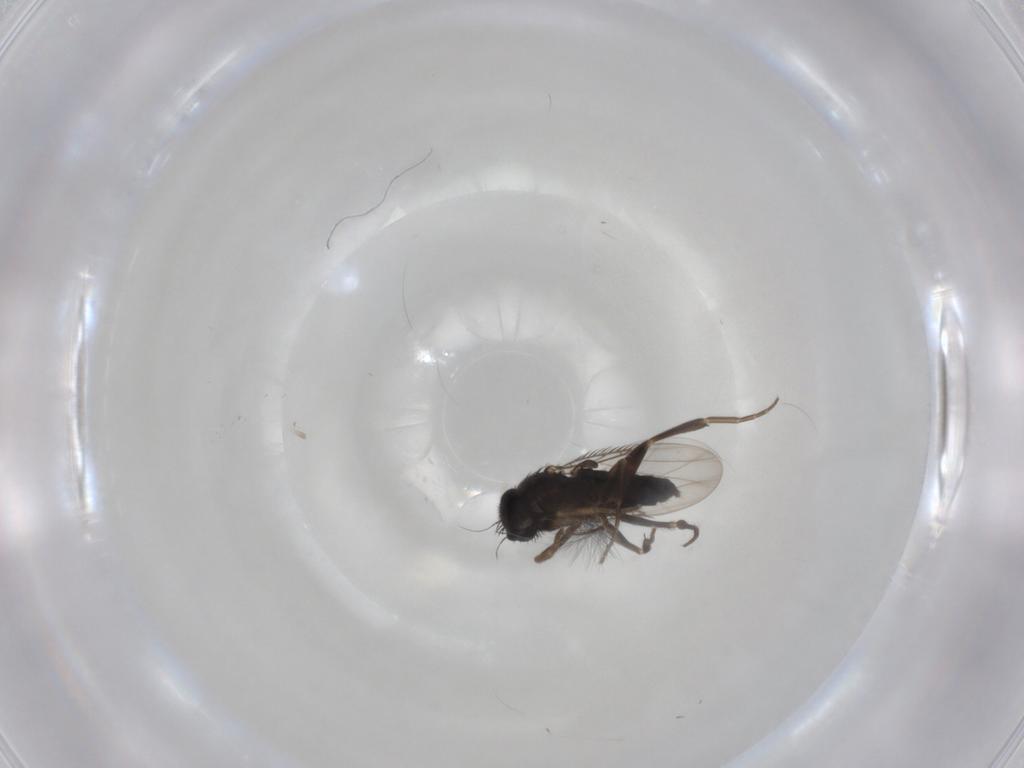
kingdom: Animalia
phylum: Arthropoda
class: Insecta
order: Diptera
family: Phoridae
